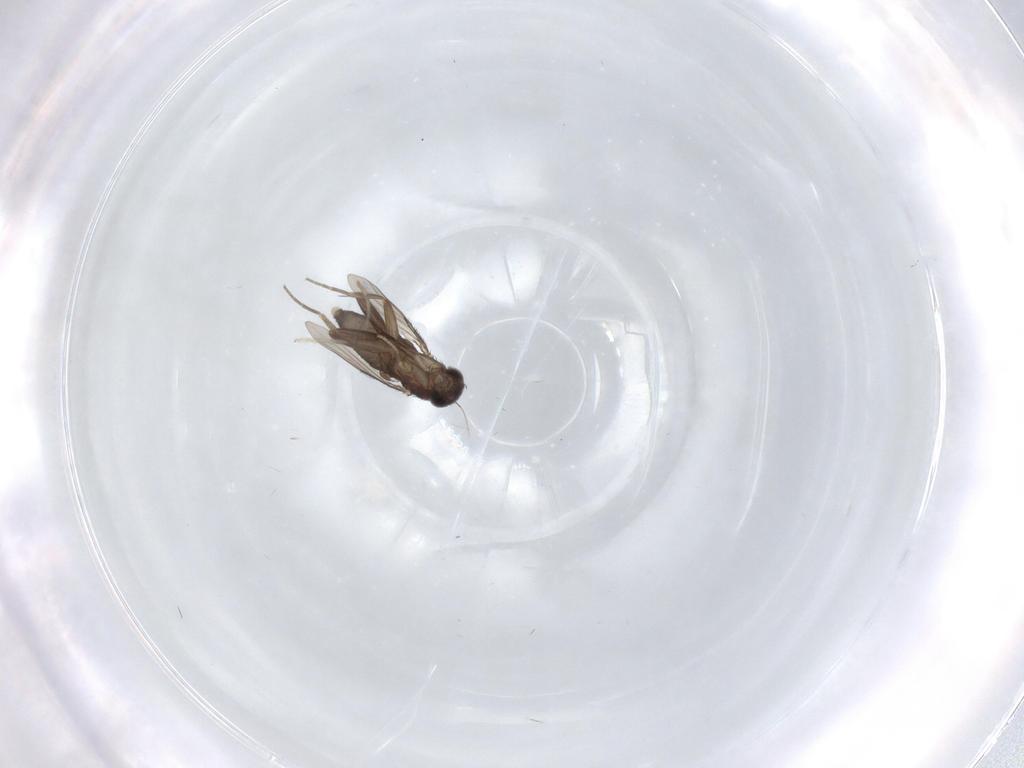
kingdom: Animalia
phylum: Arthropoda
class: Insecta
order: Diptera
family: Phoridae
